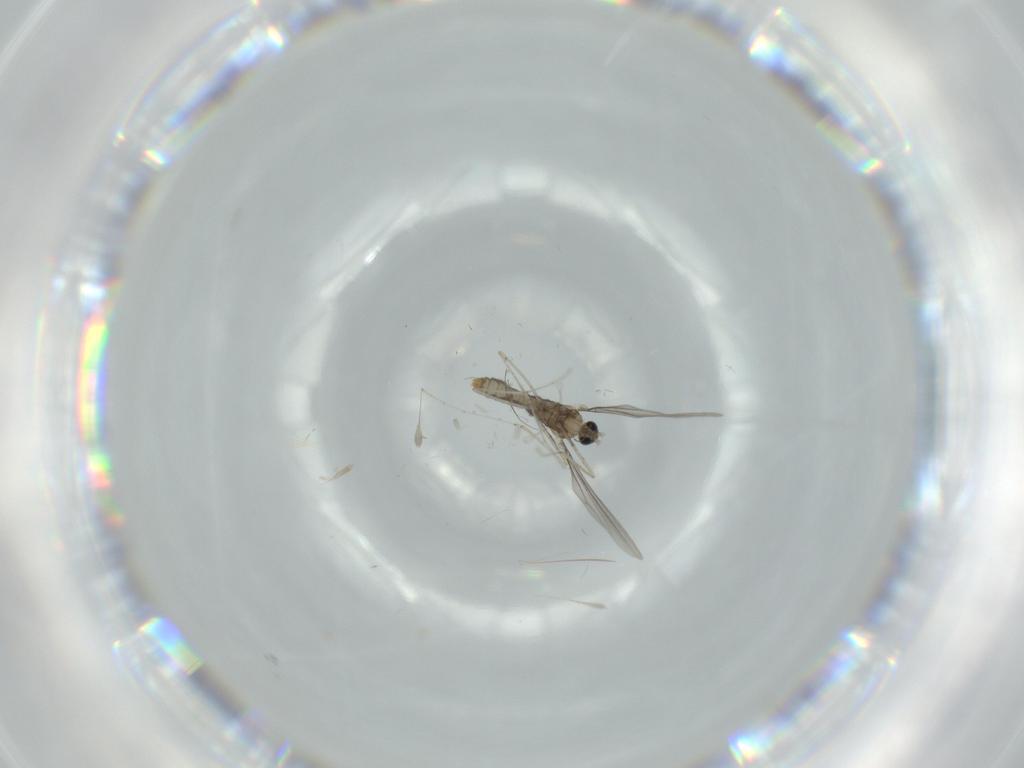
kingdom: Animalia
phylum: Arthropoda
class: Insecta
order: Diptera
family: Cecidomyiidae
